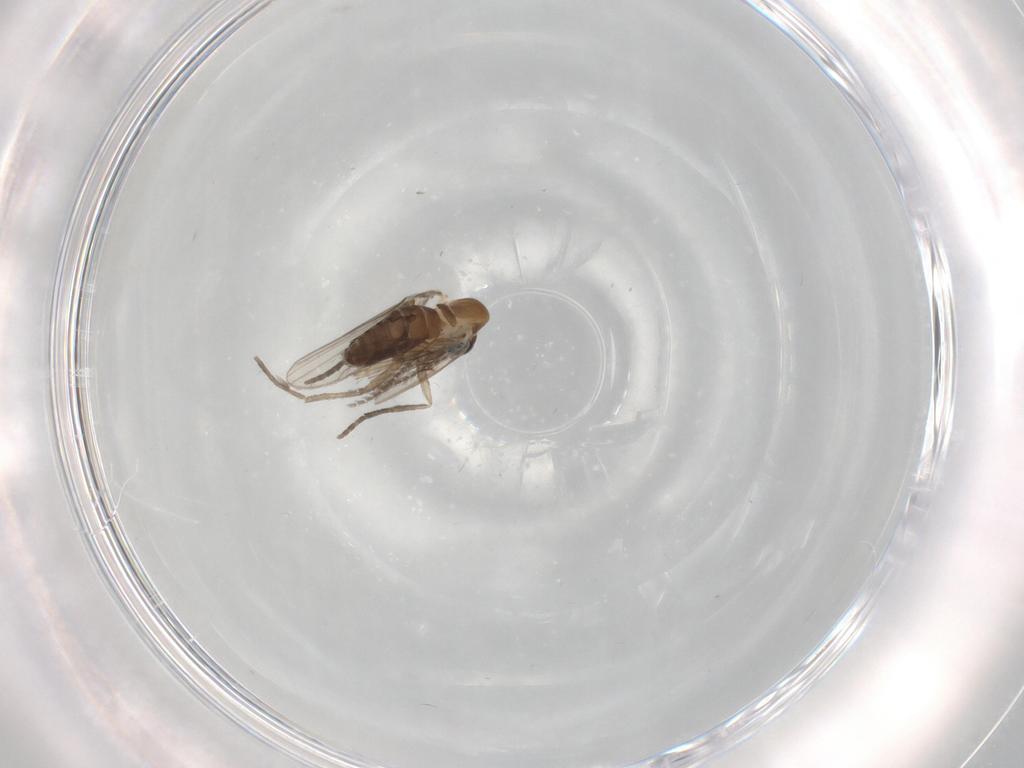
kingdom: Animalia
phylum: Arthropoda
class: Insecta
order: Diptera
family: Psychodidae
